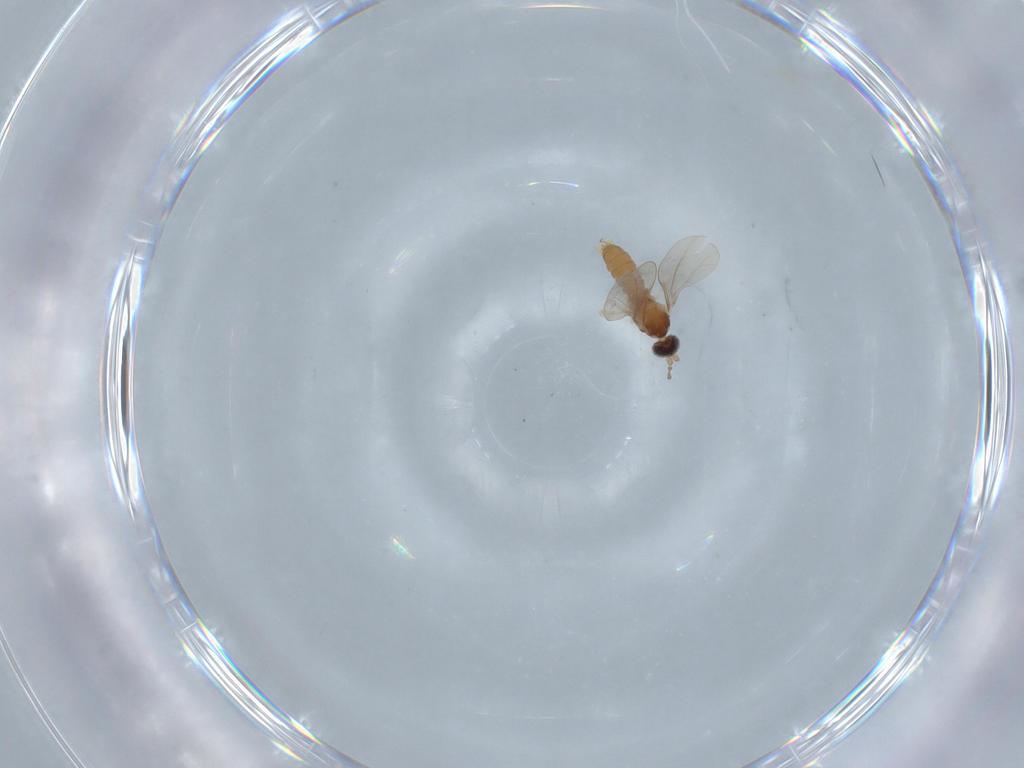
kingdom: Animalia
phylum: Arthropoda
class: Insecta
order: Diptera
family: Cecidomyiidae
